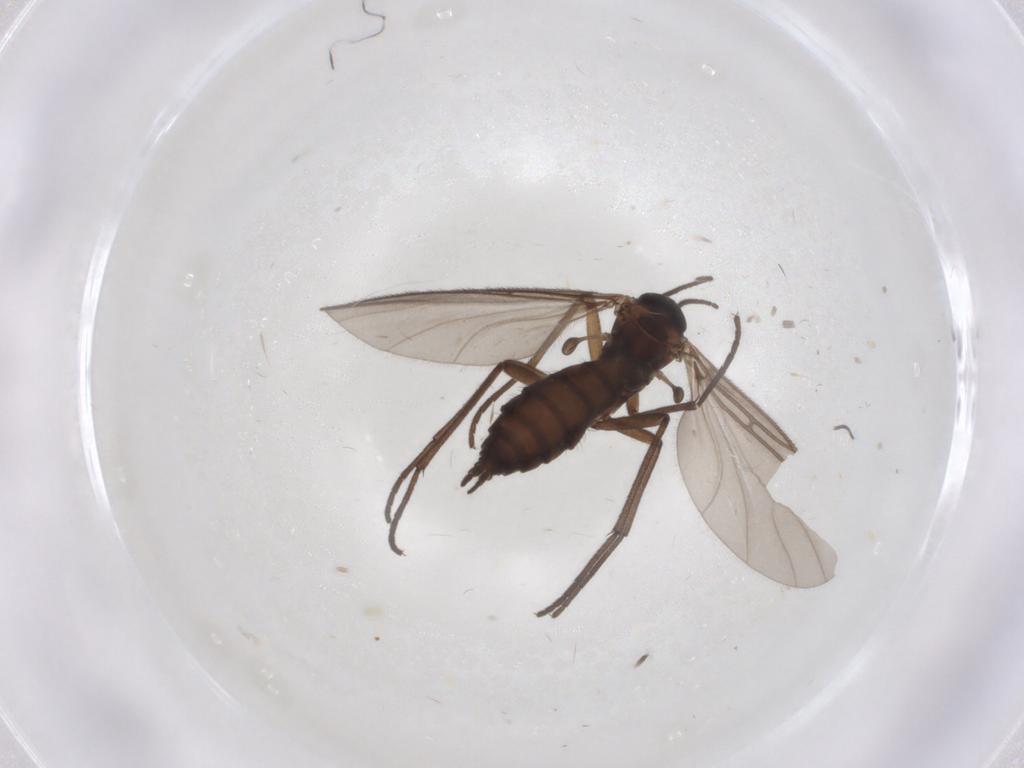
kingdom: Animalia
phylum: Arthropoda
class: Insecta
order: Diptera
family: Sciaridae
